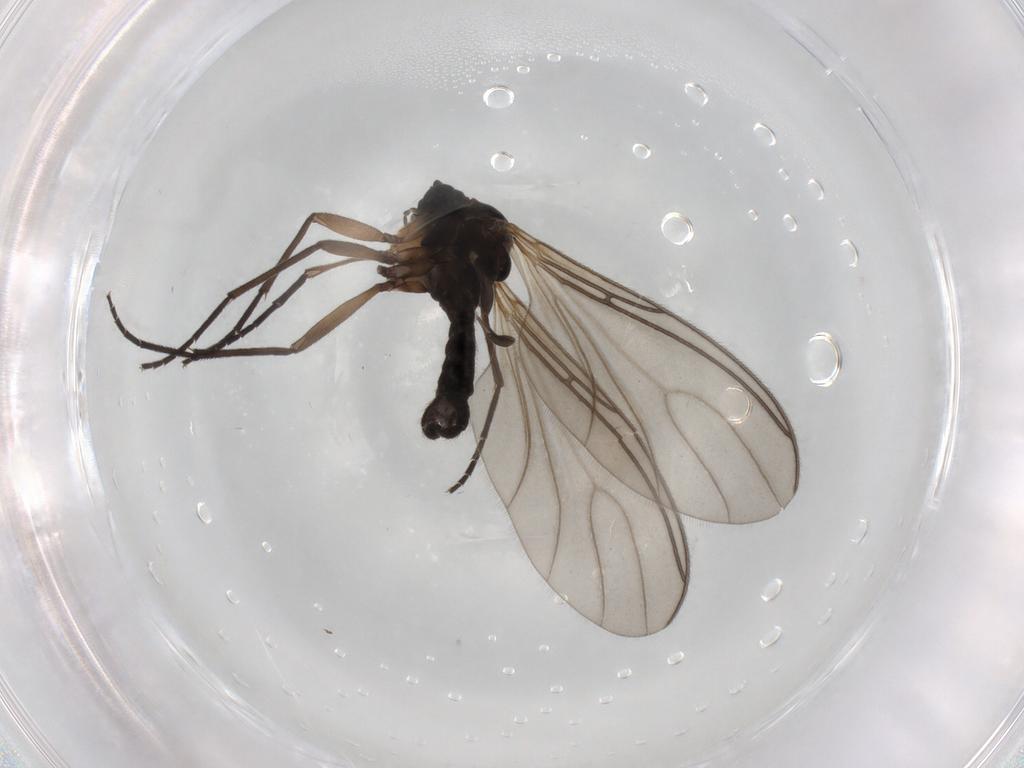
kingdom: Animalia
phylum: Arthropoda
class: Insecta
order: Diptera
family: Sciaridae
